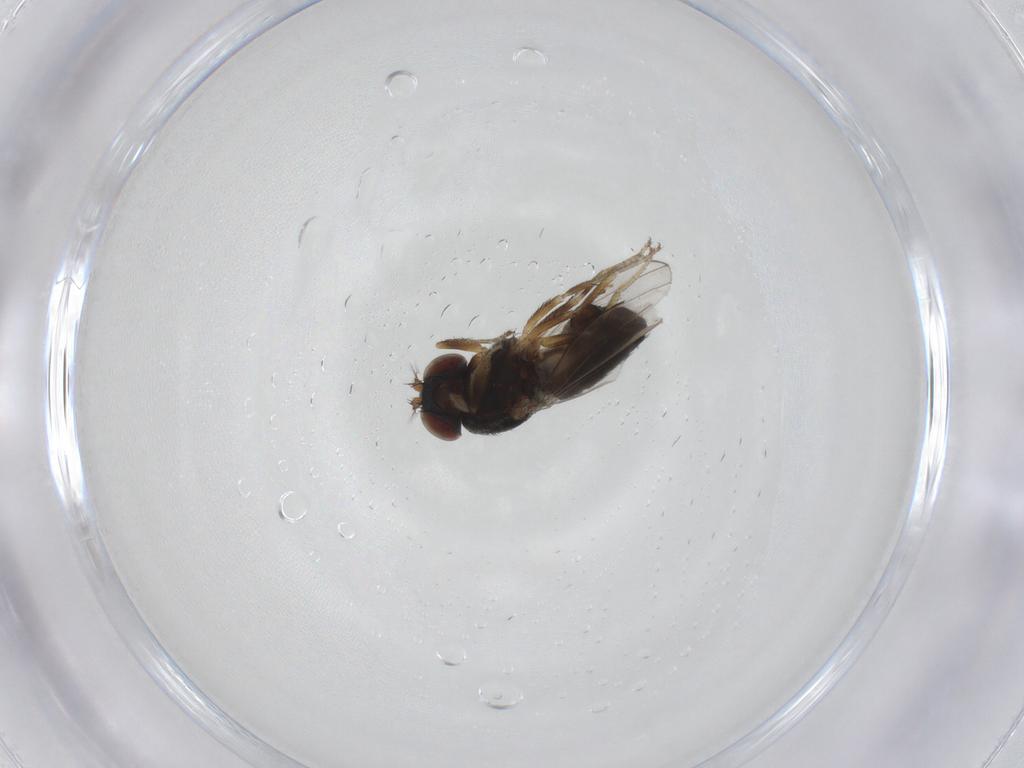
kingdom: Animalia
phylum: Arthropoda
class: Insecta
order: Diptera
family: Ephydridae
